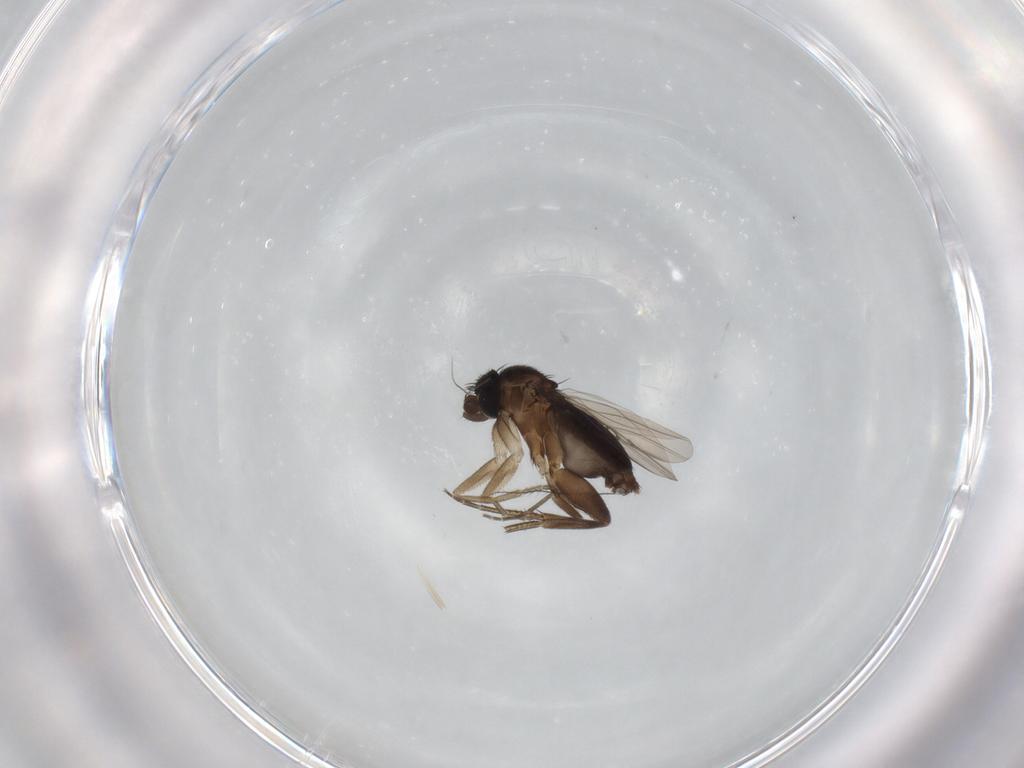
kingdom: Animalia
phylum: Arthropoda
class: Insecta
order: Diptera
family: Phoridae
